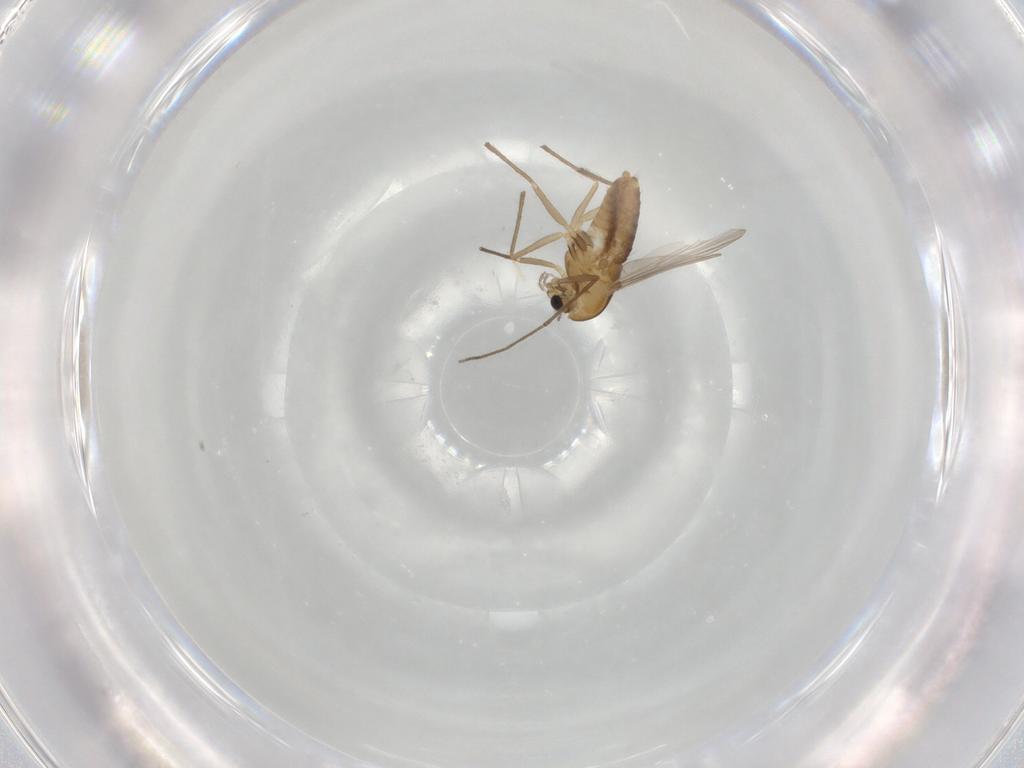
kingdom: Animalia
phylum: Arthropoda
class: Insecta
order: Diptera
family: Chironomidae
